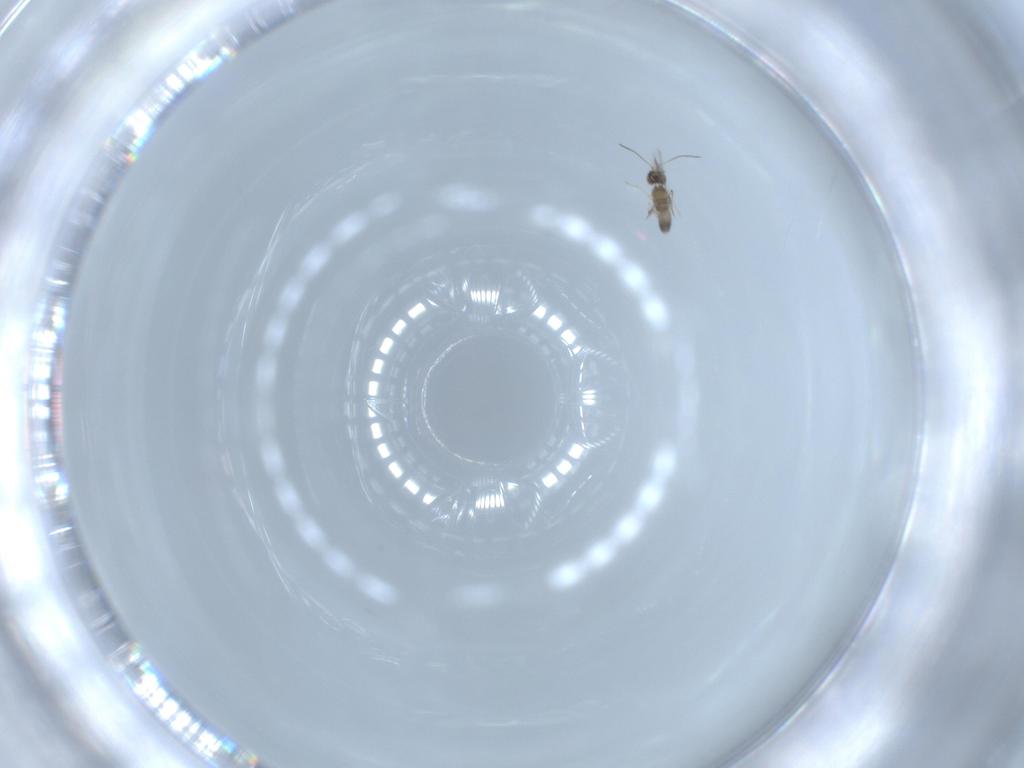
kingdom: Animalia
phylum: Arthropoda
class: Insecta
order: Hymenoptera
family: Mymaridae
